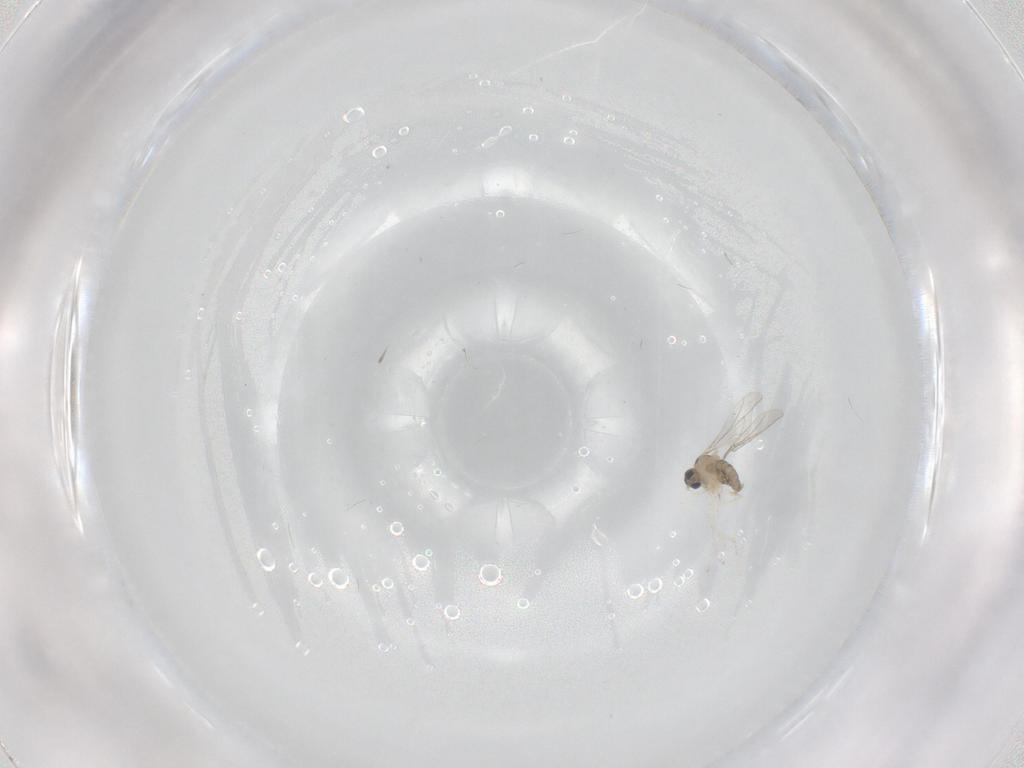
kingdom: Animalia
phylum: Arthropoda
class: Insecta
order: Diptera
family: Cecidomyiidae
